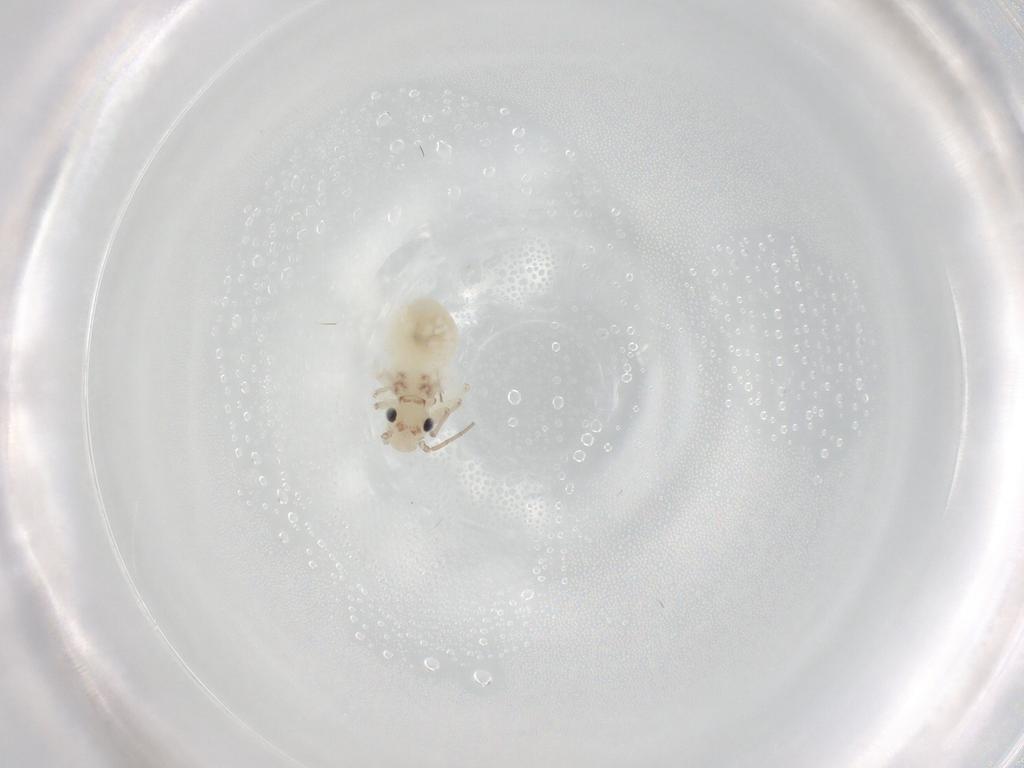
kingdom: Animalia
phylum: Arthropoda
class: Insecta
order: Psocodea
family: Caeciliusidae
